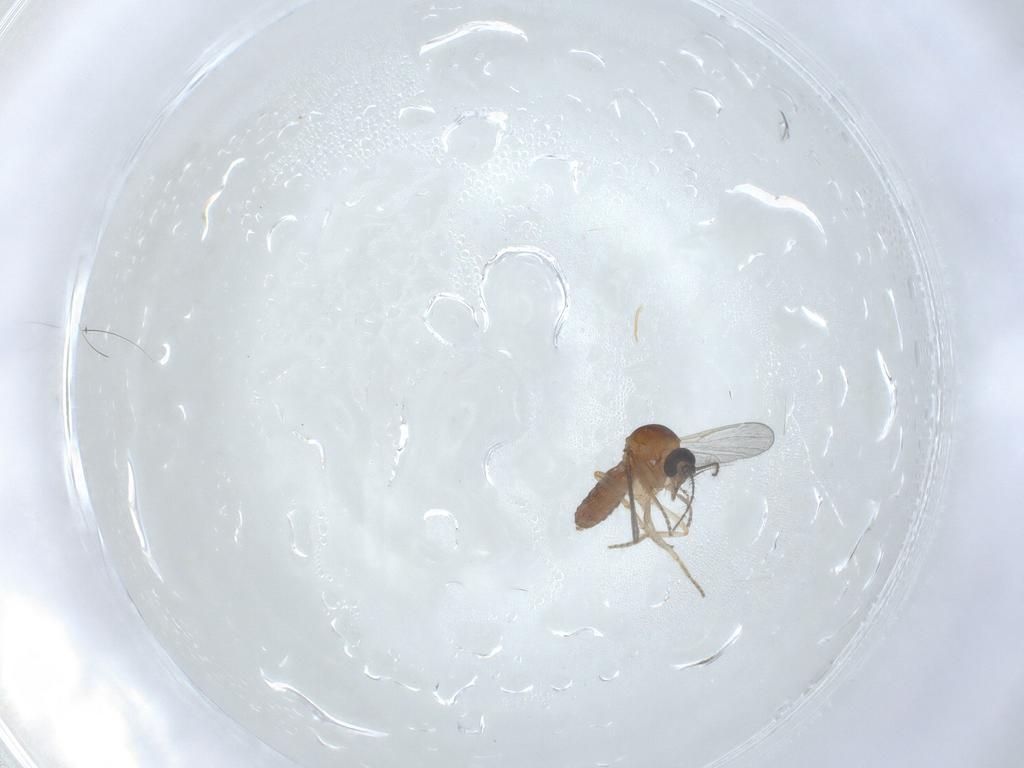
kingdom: Animalia
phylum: Arthropoda
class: Insecta
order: Diptera
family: Ceratopogonidae
